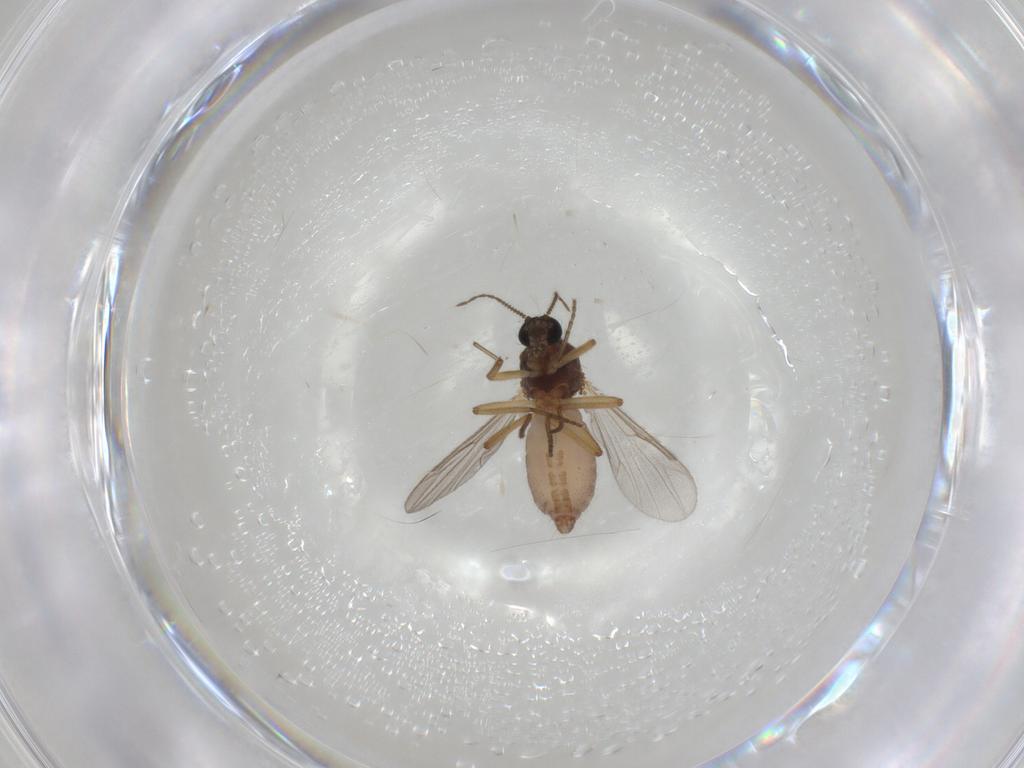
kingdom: Animalia
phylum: Arthropoda
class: Insecta
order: Diptera
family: Ceratopogonidae
